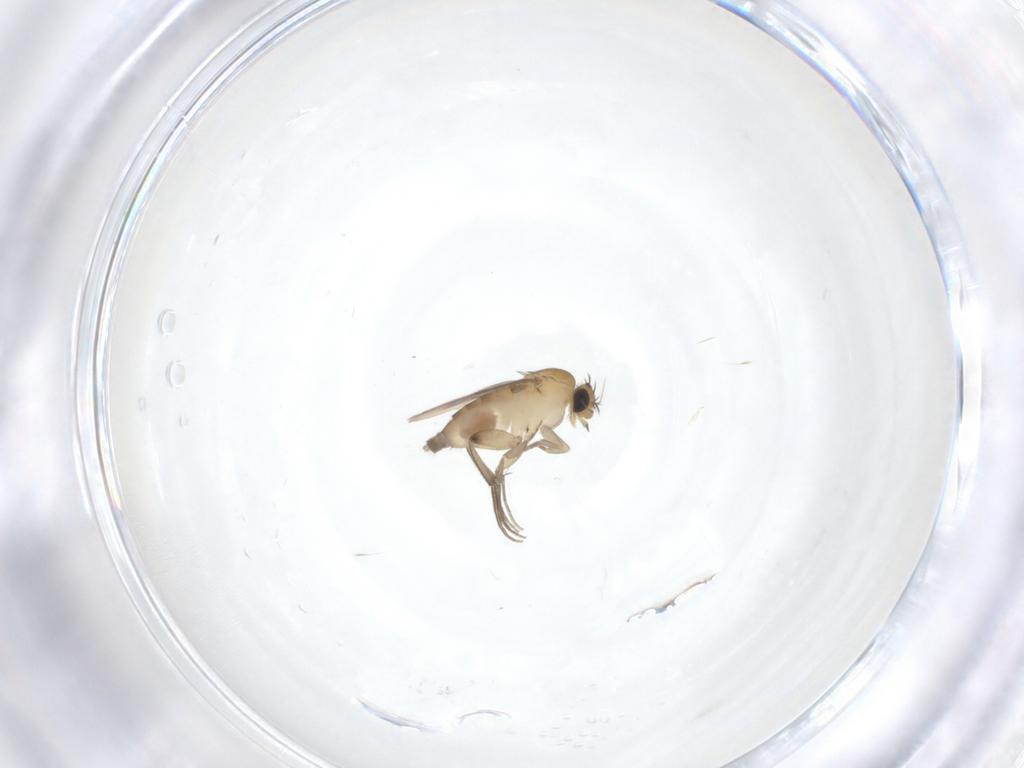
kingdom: Animalia
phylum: Arthropoda
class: Insecta
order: Diptera
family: Phoridae
